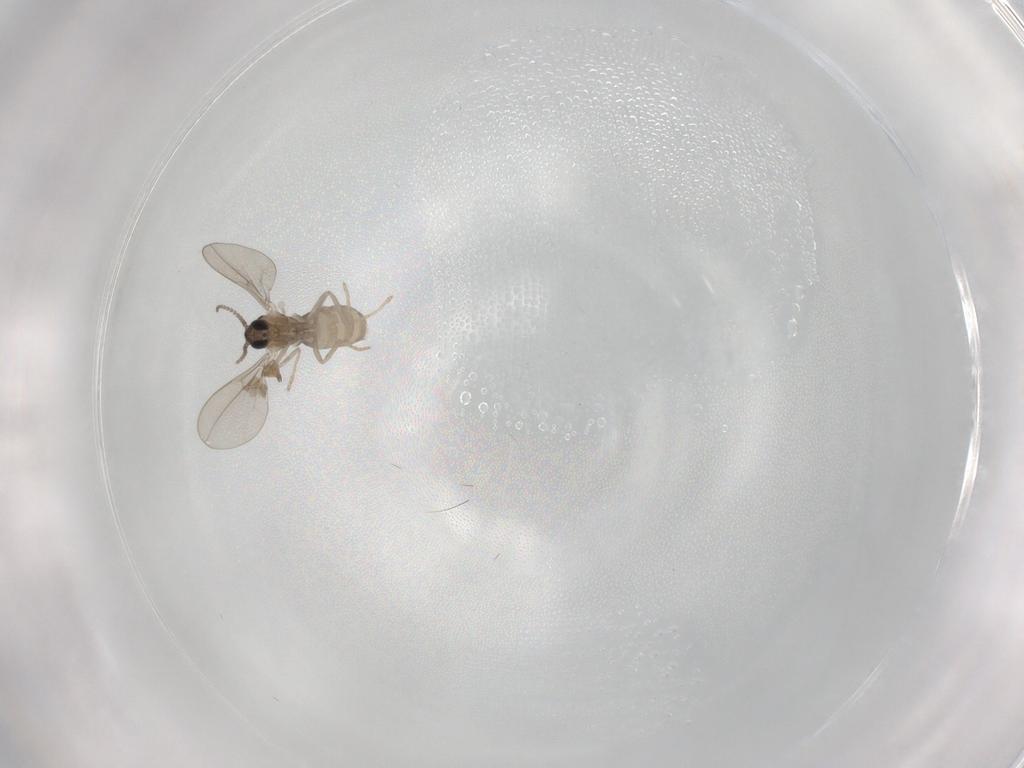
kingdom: Animalia
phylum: Arthropoda
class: Insecta
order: Diptera
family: Cecidomyiidae
